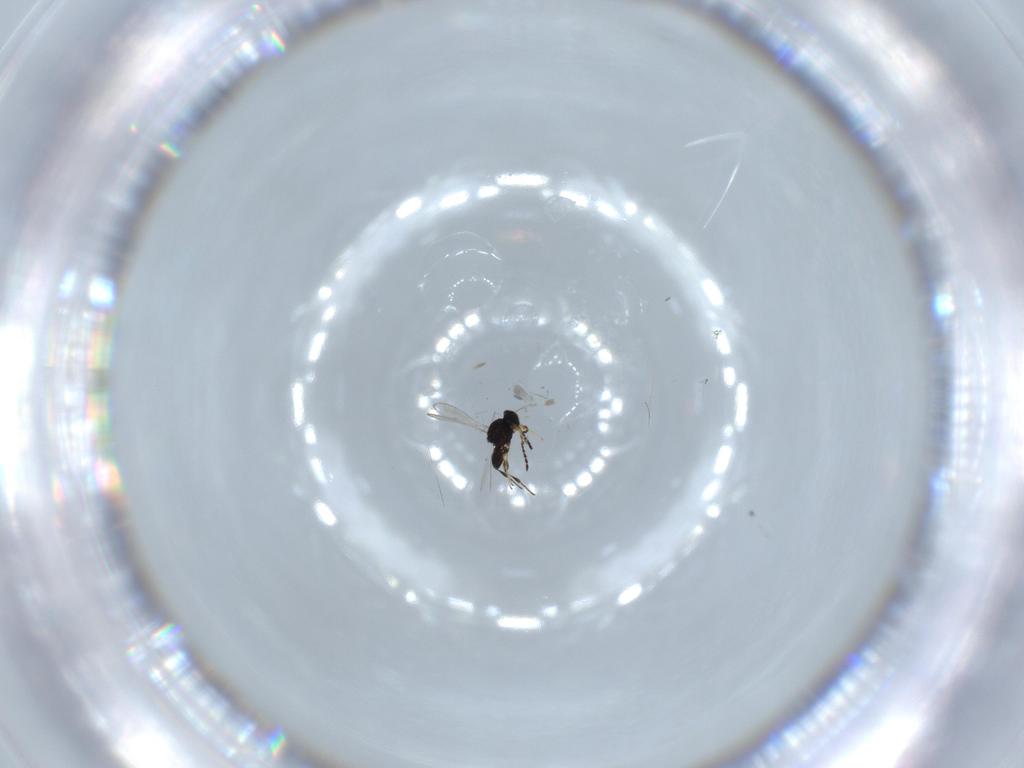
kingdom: Animalia
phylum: Arthropoda
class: Insecta
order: Hymenoptera
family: Platygastridae
